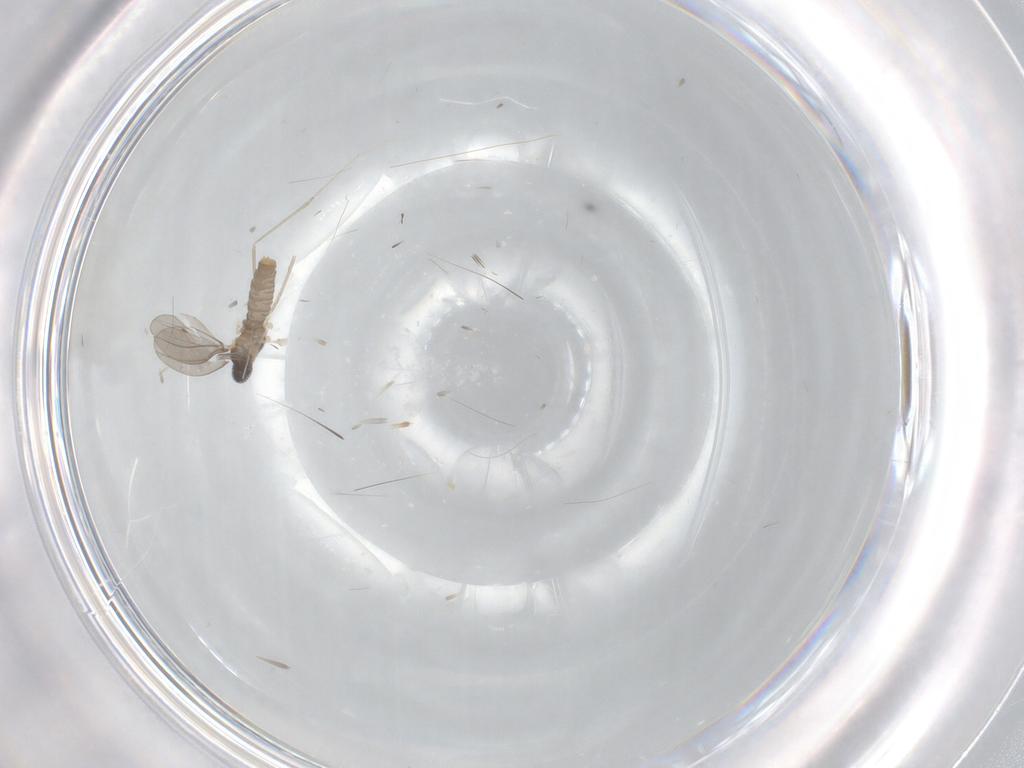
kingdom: Animalia
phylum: Arthropoda
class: Insecta
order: Diptera
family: Cecidomyiidae
